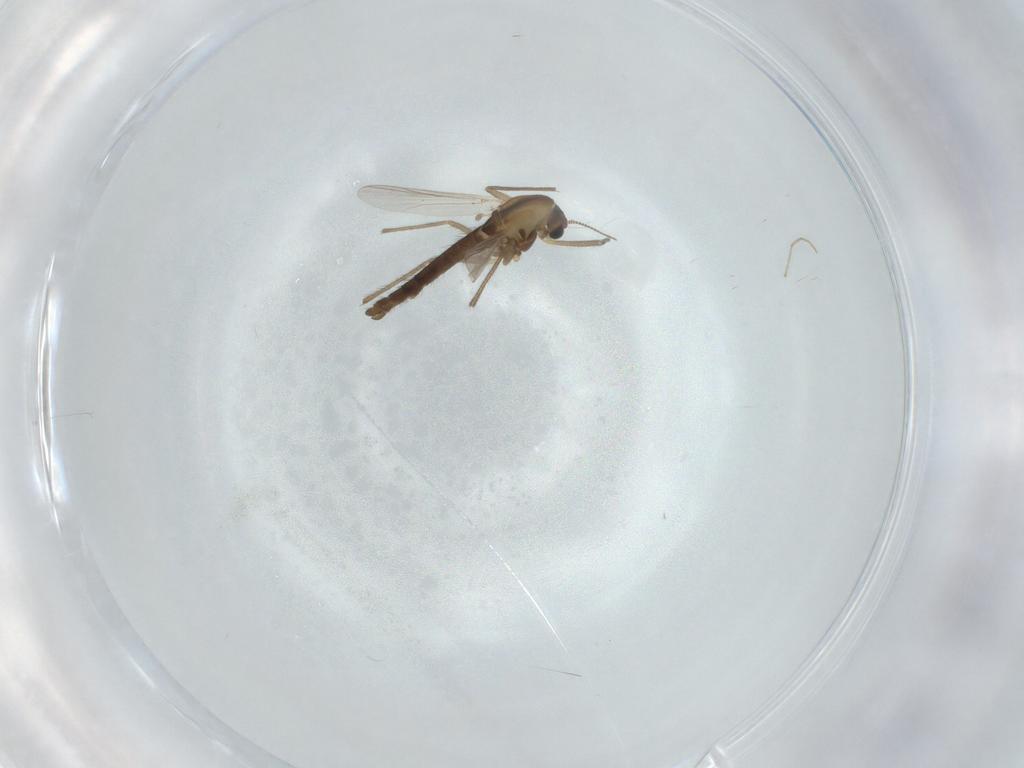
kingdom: Animalia
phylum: Arthropoda
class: Insecta
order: Diptera
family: Chironomidae
